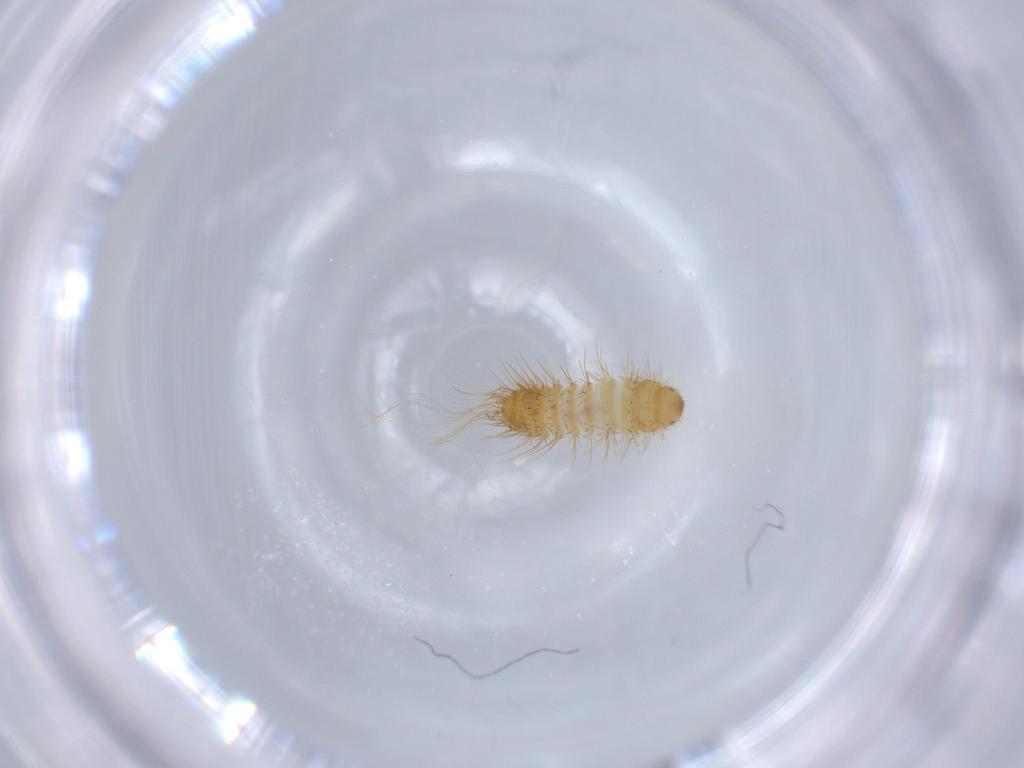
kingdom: Animalia
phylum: Arthropoda
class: Insecta
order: Coleoptera
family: Dermestidae
